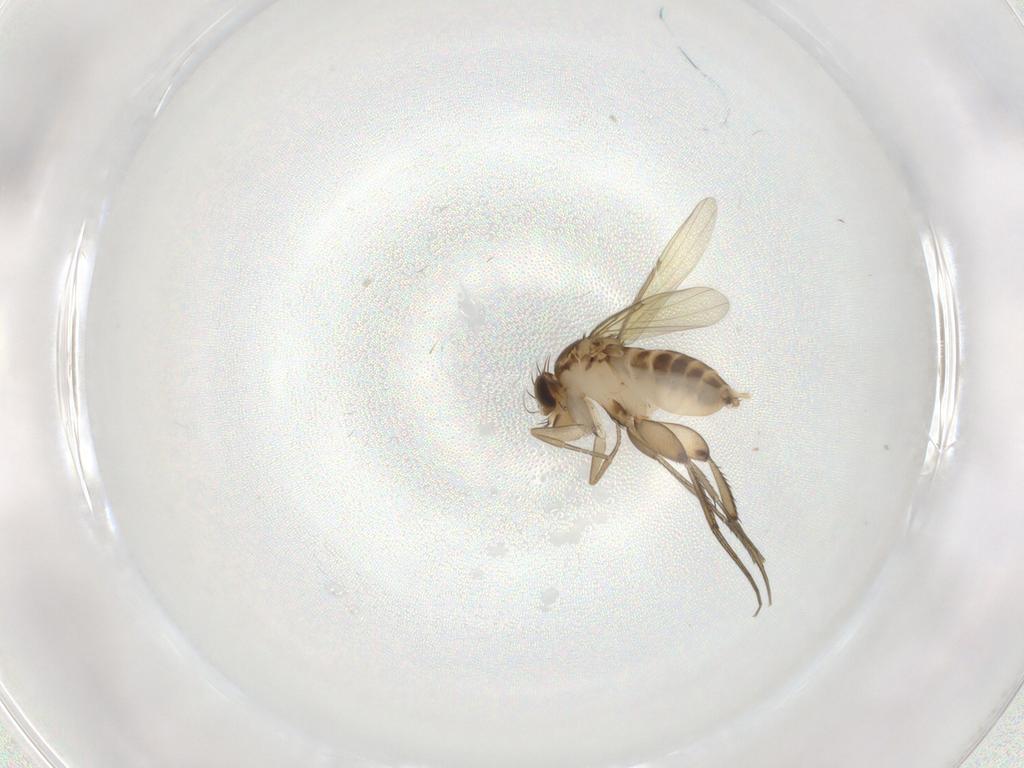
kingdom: Animalia
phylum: Arthropoda
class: Insecta
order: Diptera
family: Phoridae
